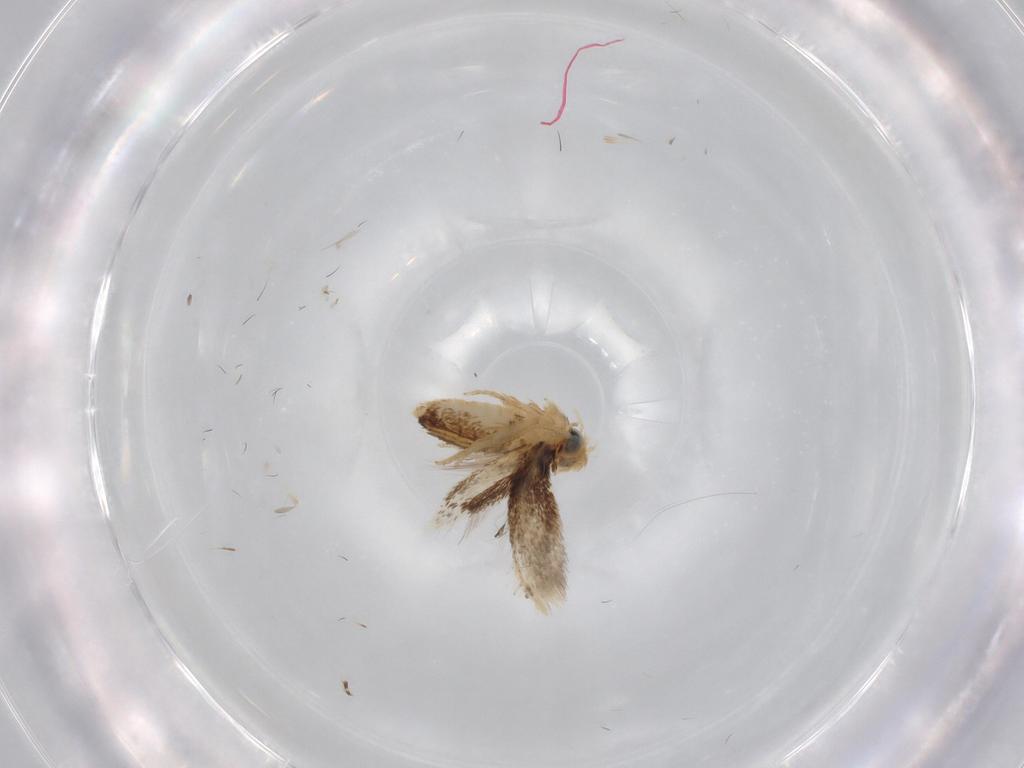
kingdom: Animalia
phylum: Arthropoda
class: Insecta
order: Lepidoptera
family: Nepticulidae
